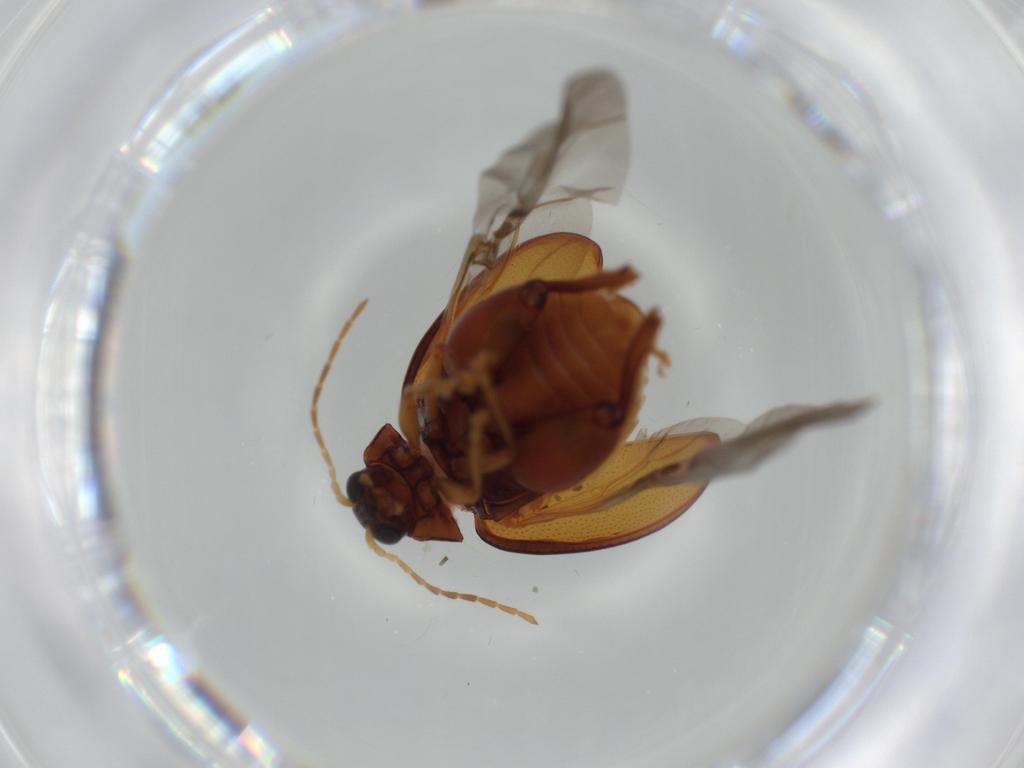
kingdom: Animalia
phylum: Arthropoda
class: Insecta
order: Coleoptera
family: Chrysomelidae
